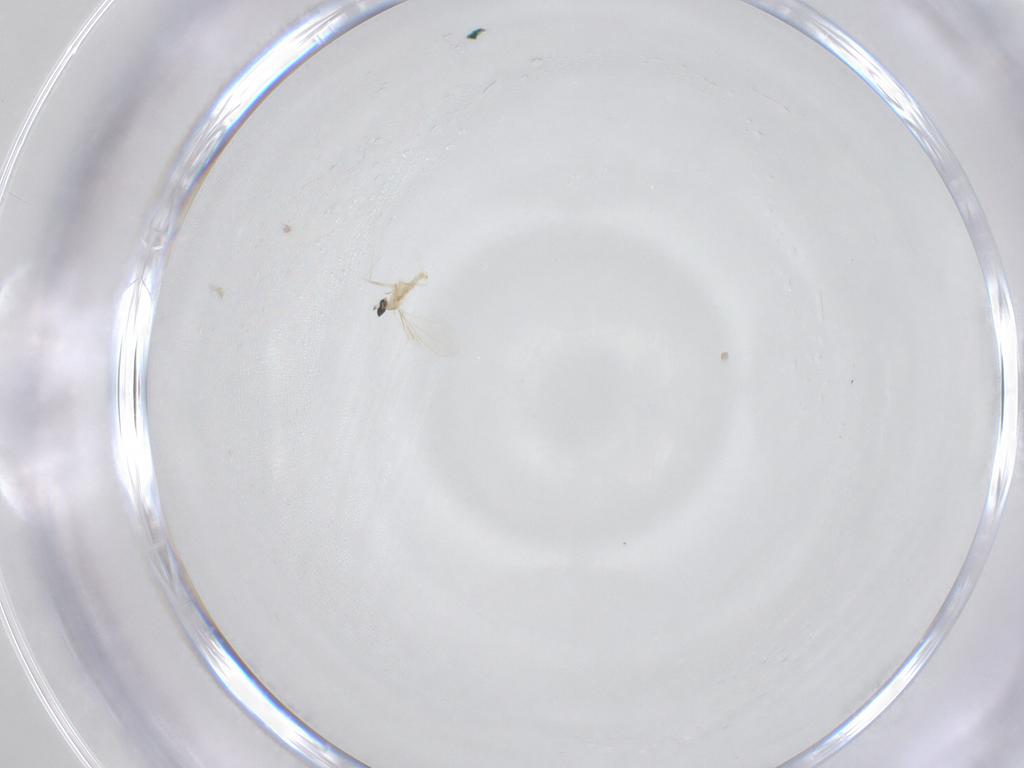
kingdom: Animalia
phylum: Arthropoda
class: Insecta
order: Diptera
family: Cecidomyiidae
